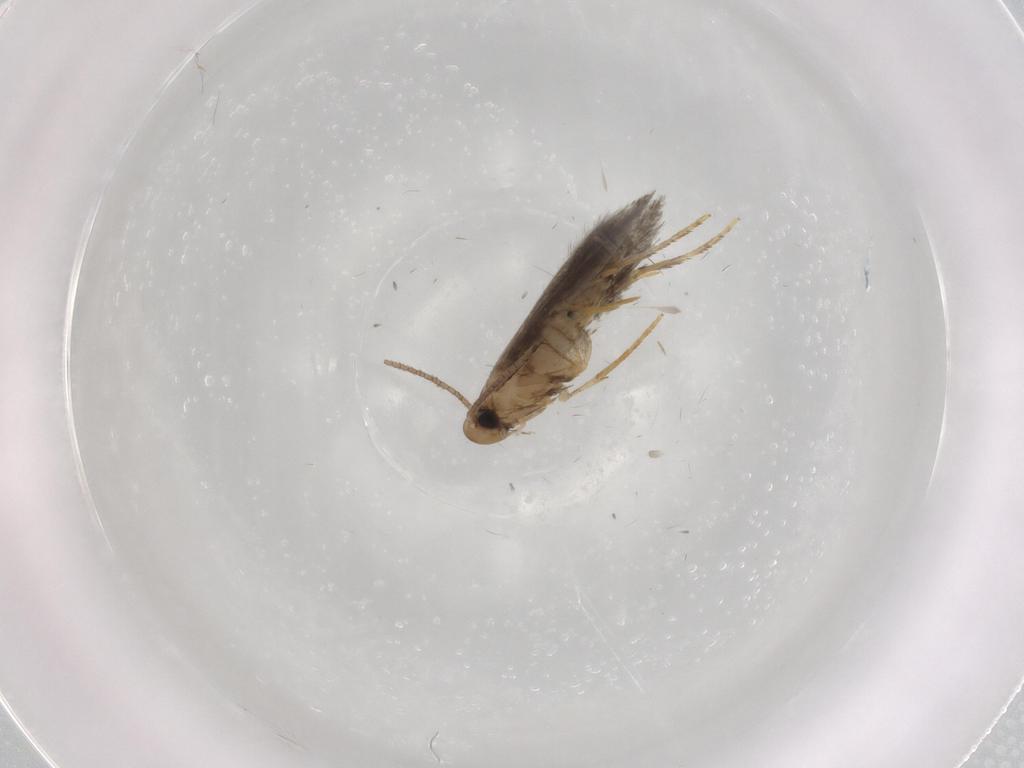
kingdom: Animalia
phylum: Arthropoda
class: Insecta
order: Lepidoptera
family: Heliozelidae
